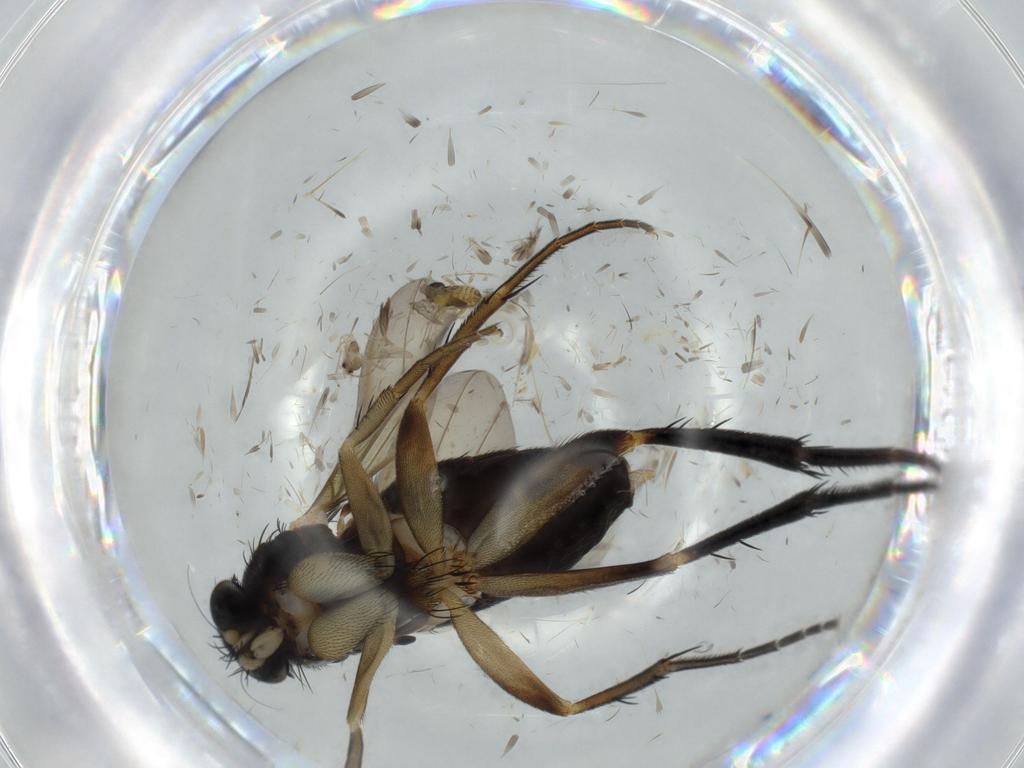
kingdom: Animalia
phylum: Arthropoda
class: Insecta
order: Diptera
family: Phoridae
